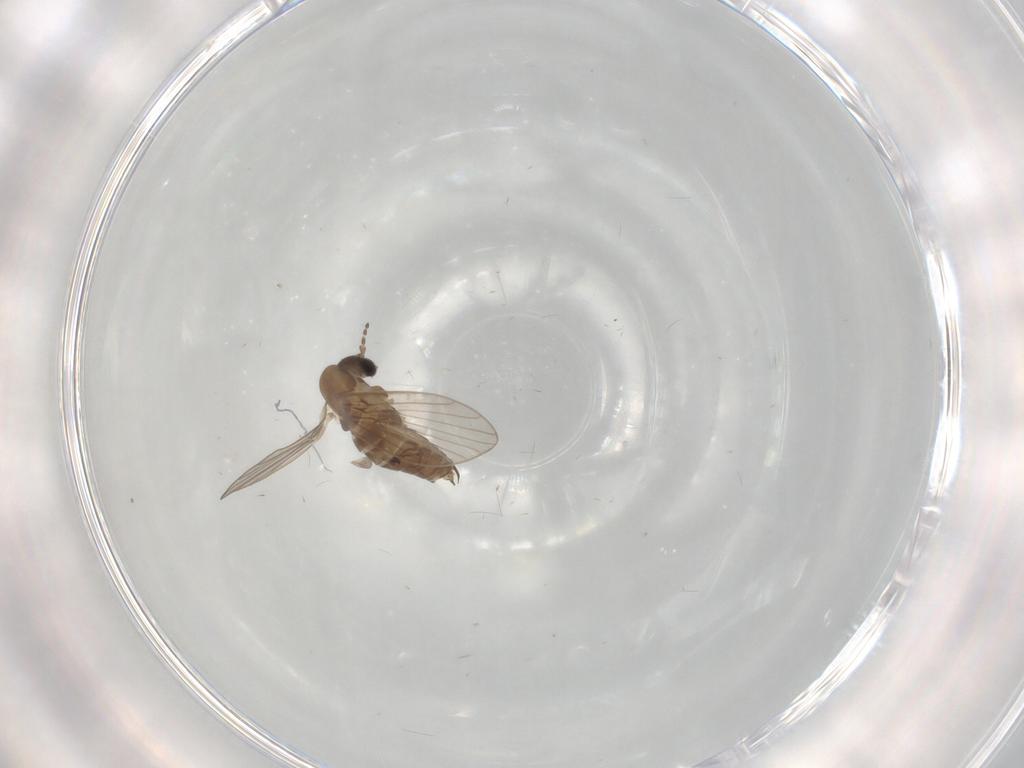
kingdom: Animalia
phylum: Arthropoda
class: Insecta
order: Diptera
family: Psychodidae
